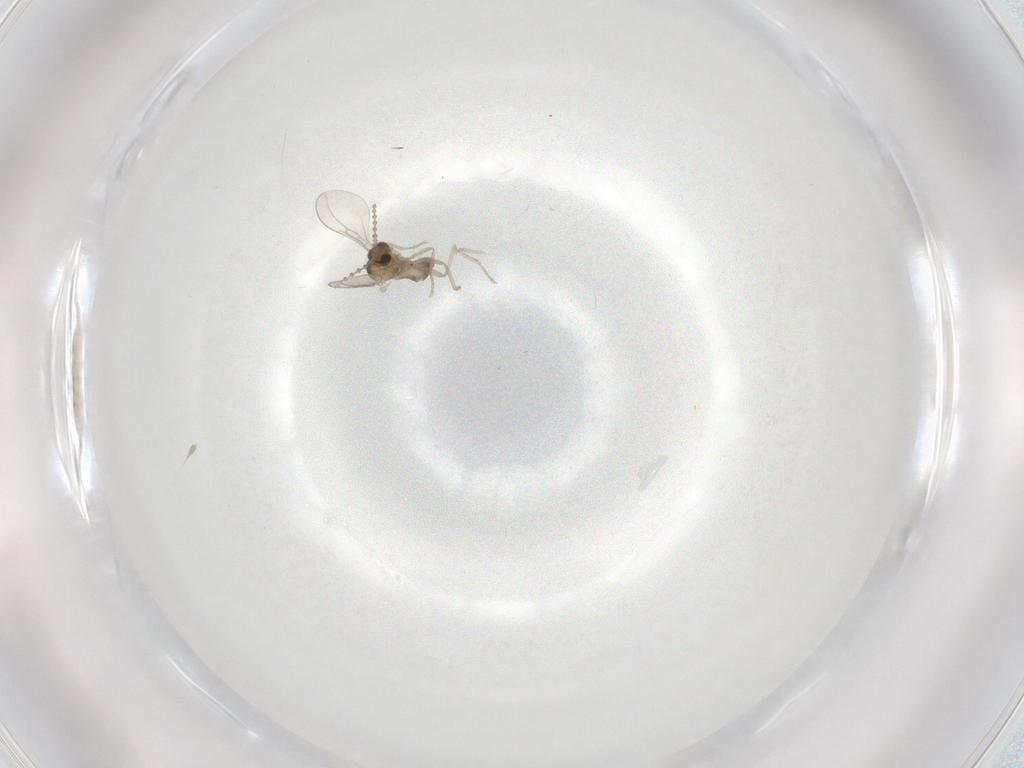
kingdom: Animalia
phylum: Arthropoda
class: Insecta
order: Diptera
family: Cecidomyiidae
